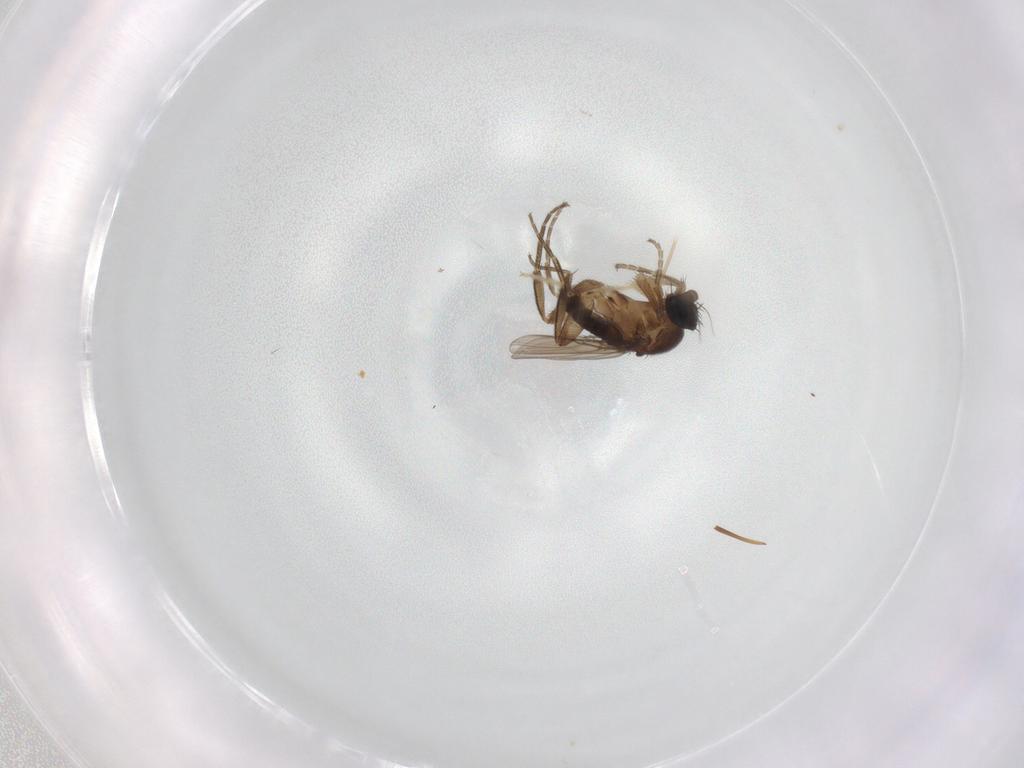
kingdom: Animalia
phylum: Arthropoda
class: Insecta
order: Diptera
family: Phoridae
